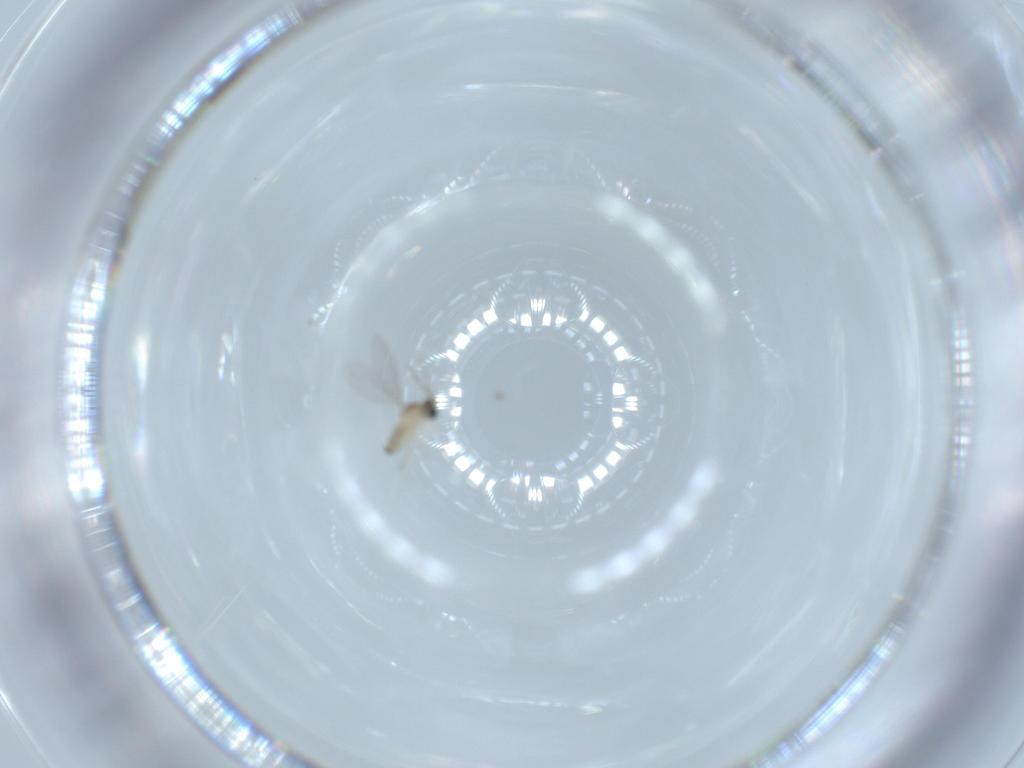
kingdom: Animalia
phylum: Arthropoda
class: Insecta
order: Diptera
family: Cecidomyiidae
